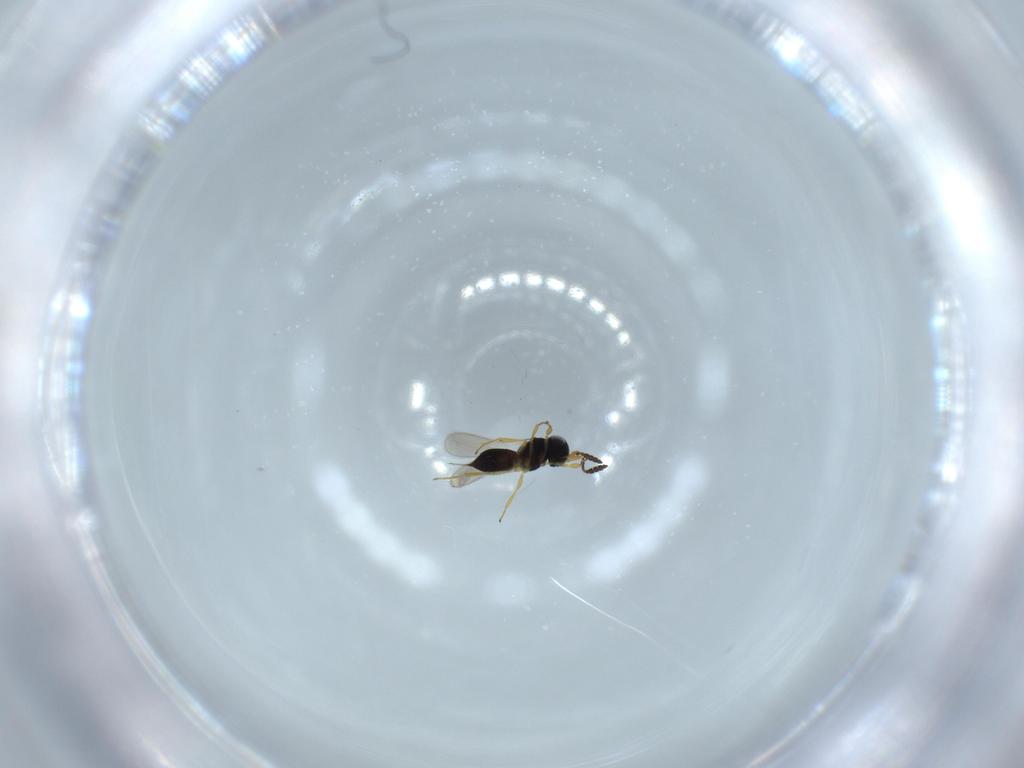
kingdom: Animalia
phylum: Arthropoda
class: Insecta
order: Hymenoptera
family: Scelionidae
